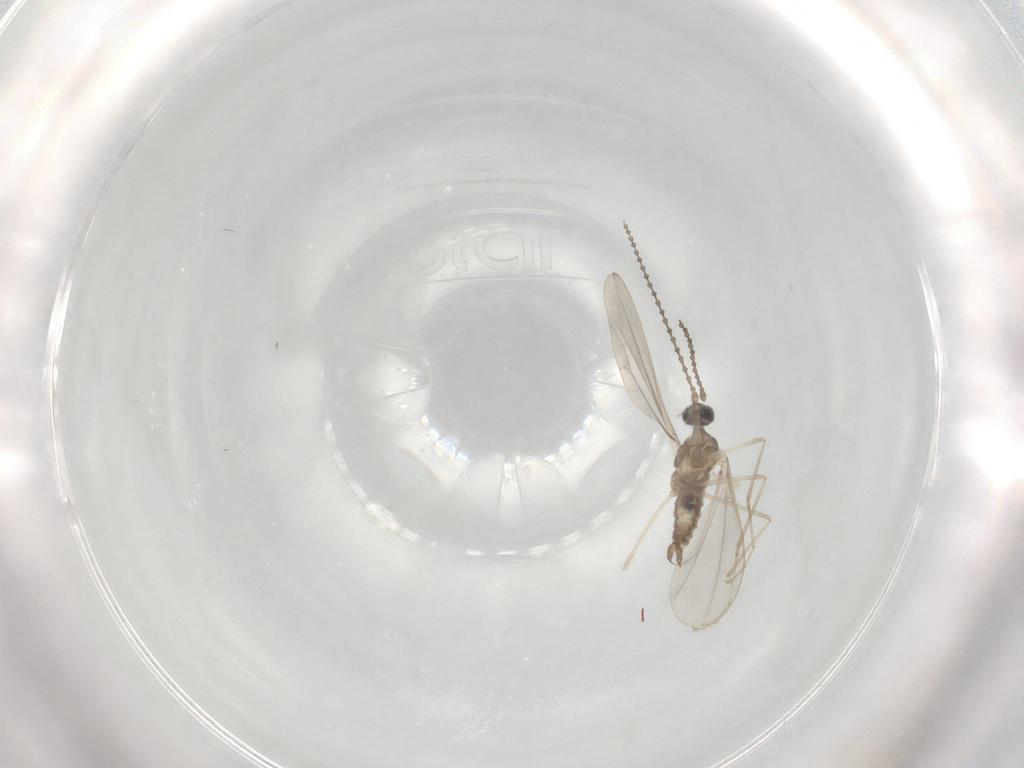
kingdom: Animalia
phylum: Arthropoda
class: Insecta
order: Diptera
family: Cecidomyiidae
